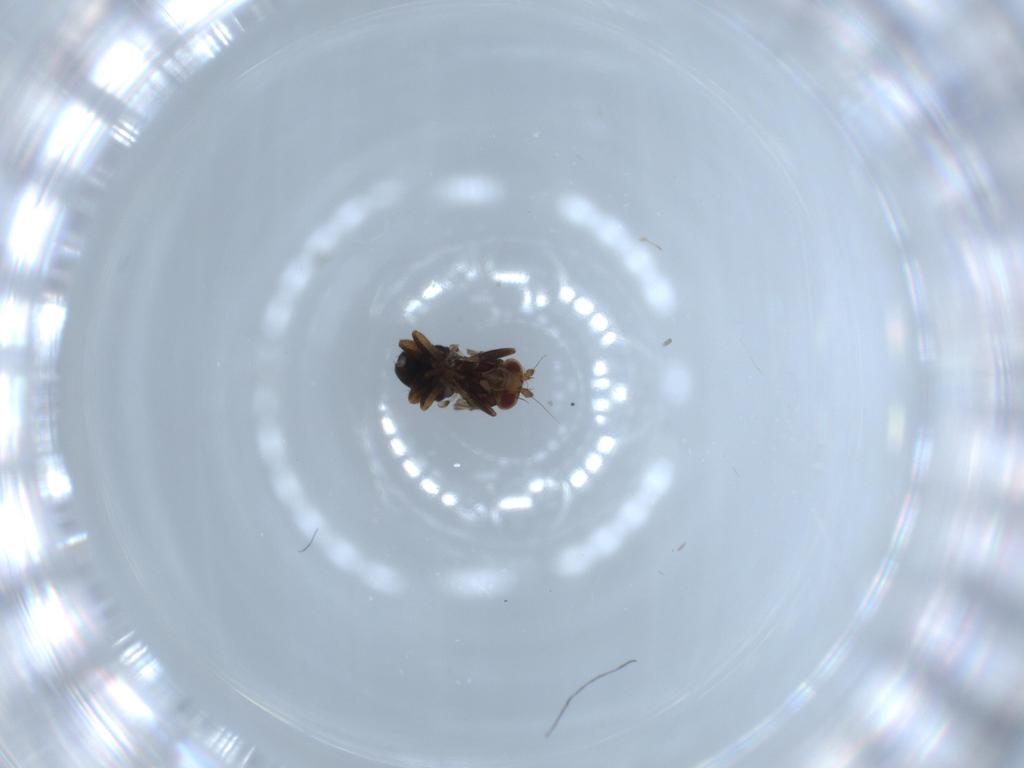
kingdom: Animalia
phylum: Arthropoda
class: Insecta
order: Diptera
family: Sphaeroceridae
